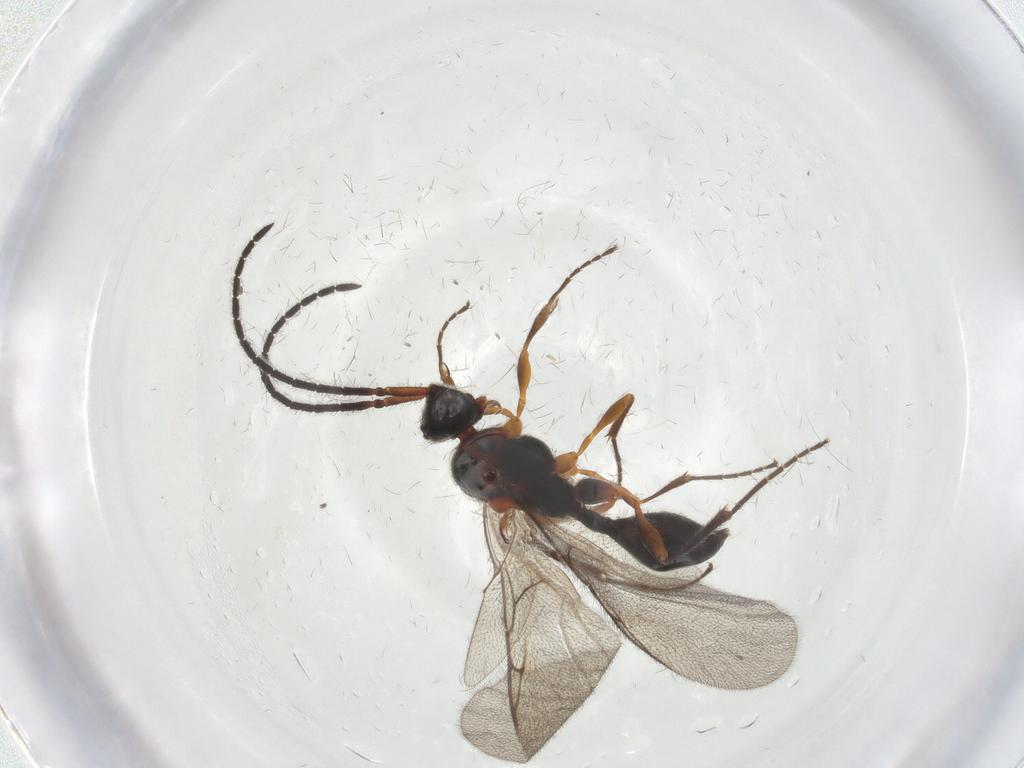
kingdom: Animalia
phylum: Arthropoda
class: Insecta
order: Hymenoptera
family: Diapriidae
